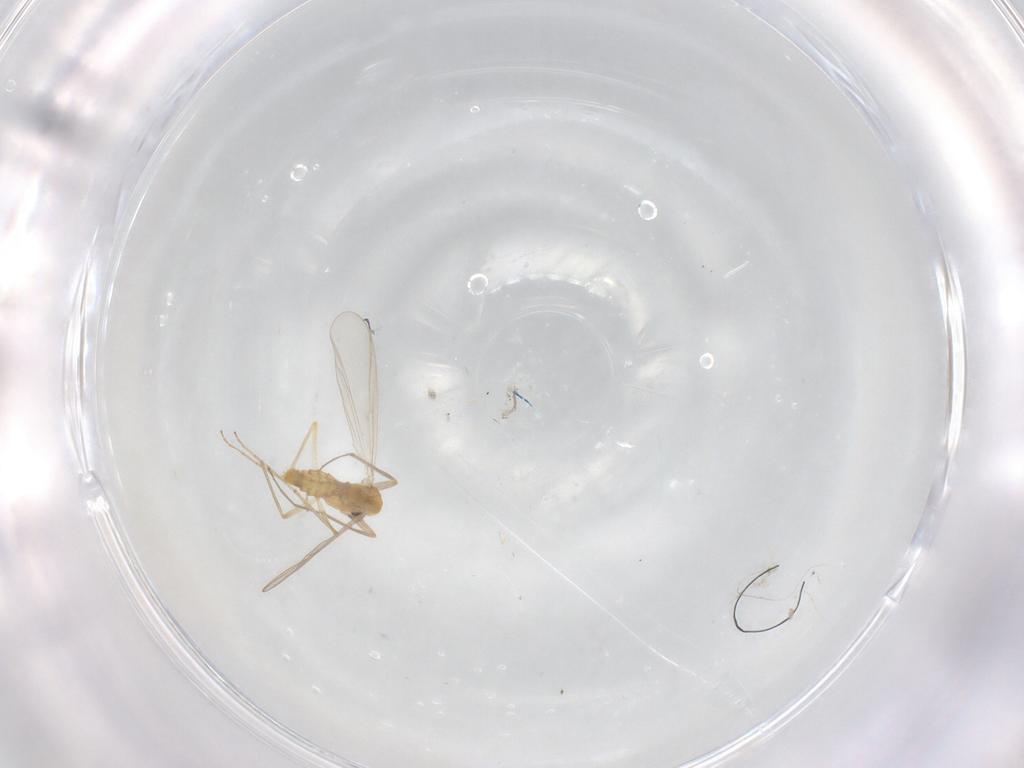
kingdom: Animalia
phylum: Arthropoda
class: Insecta
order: Diptera
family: Chironomidae
